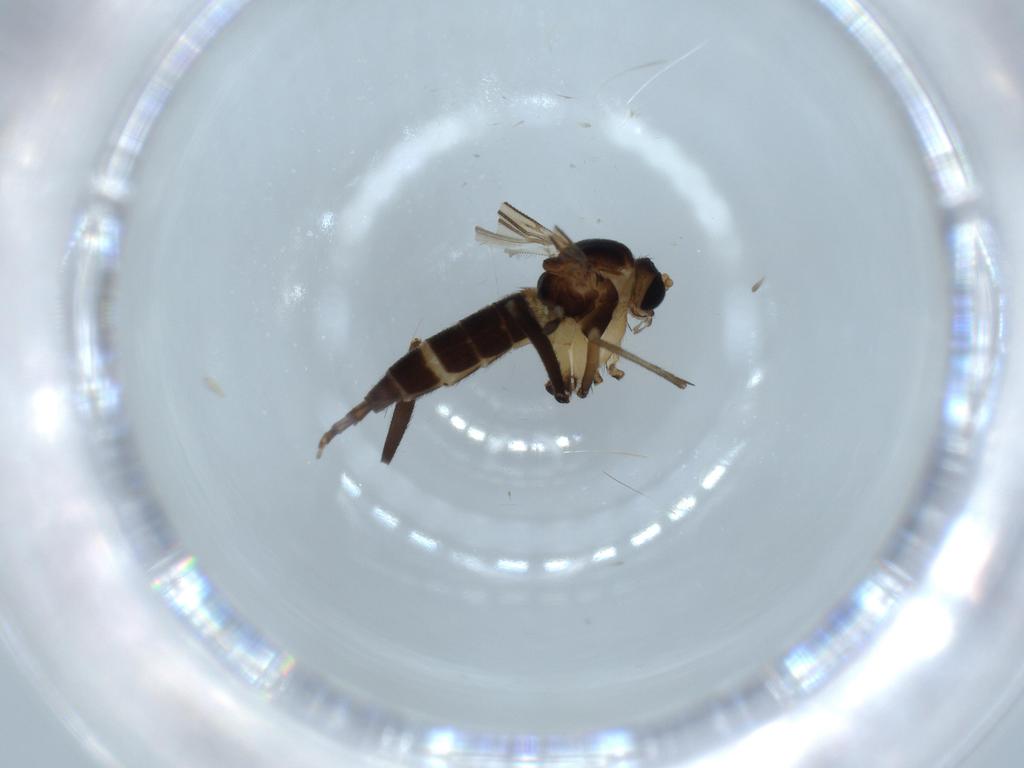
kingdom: Animalia
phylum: Arthropoda
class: Insecta
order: Diptera
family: Sciaridae
